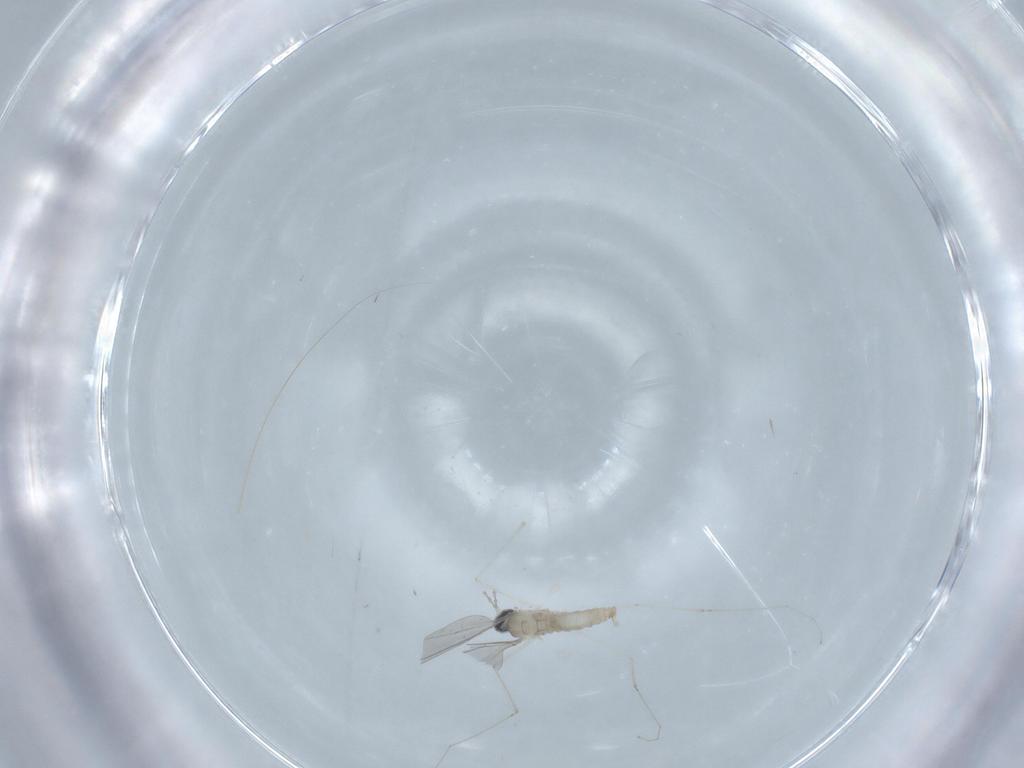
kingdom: Animalia
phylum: Arthropoda
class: Insecta
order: Diptera
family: Cecidomyiidae
